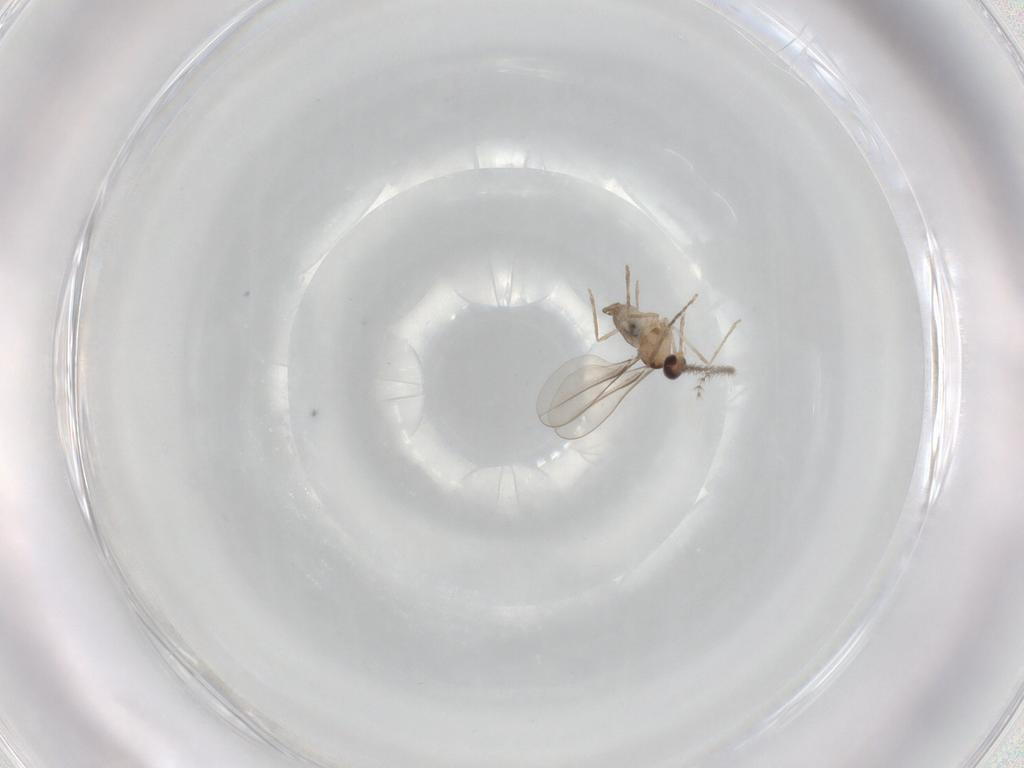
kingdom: Animalia
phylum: Arthropoda
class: Insecta
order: Diptera
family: Cecidomyiidae
